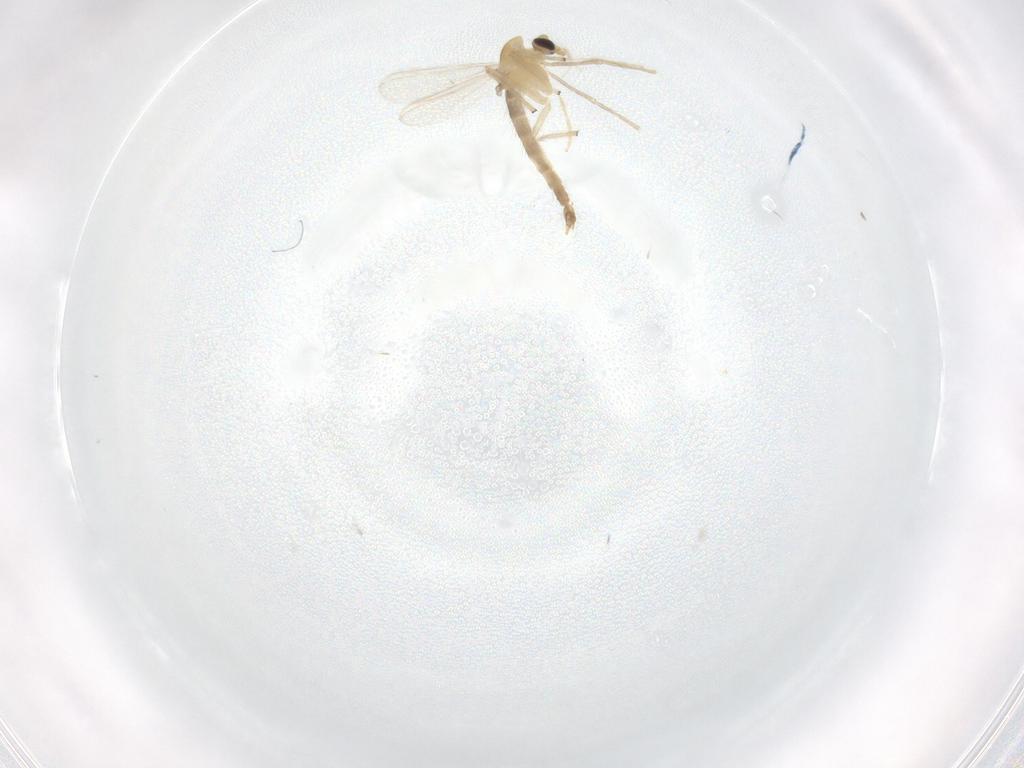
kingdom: Animalia
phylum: Arthropoda
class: Insecta
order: Diptera
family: Chironomidae
